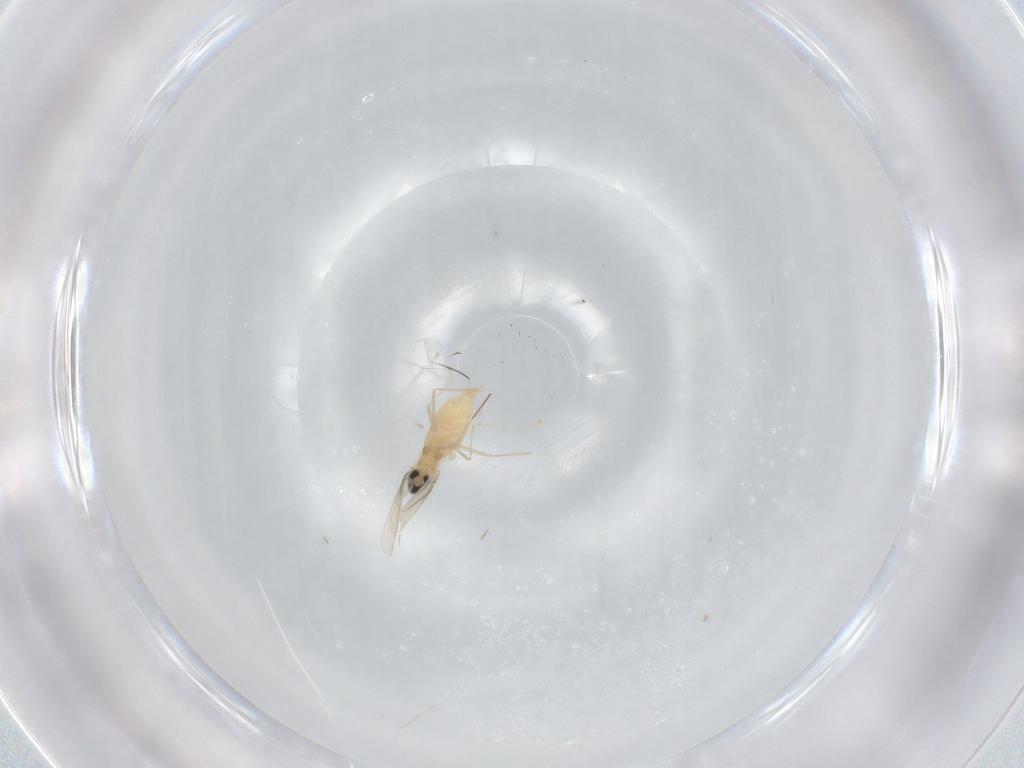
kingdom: Animalia
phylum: Arthropoda
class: Insecta
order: Diptera
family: Cecidomyiidae
